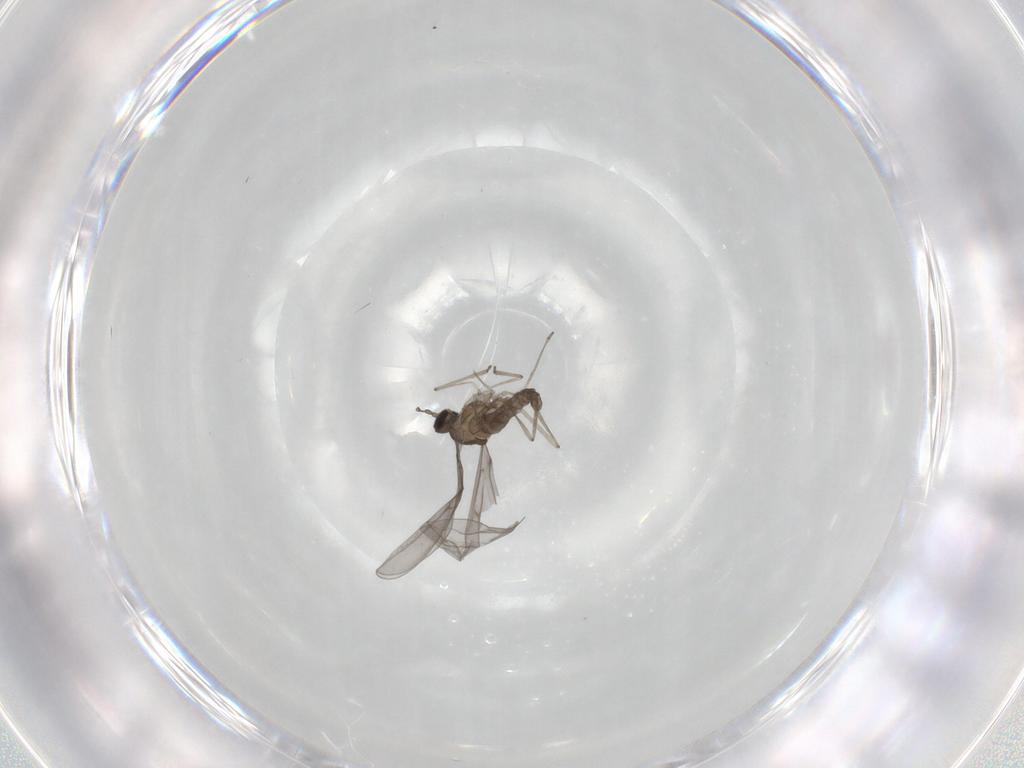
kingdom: Animalia
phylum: Arthropoda
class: Insecta
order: Diptera
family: Cecidomyiidae
